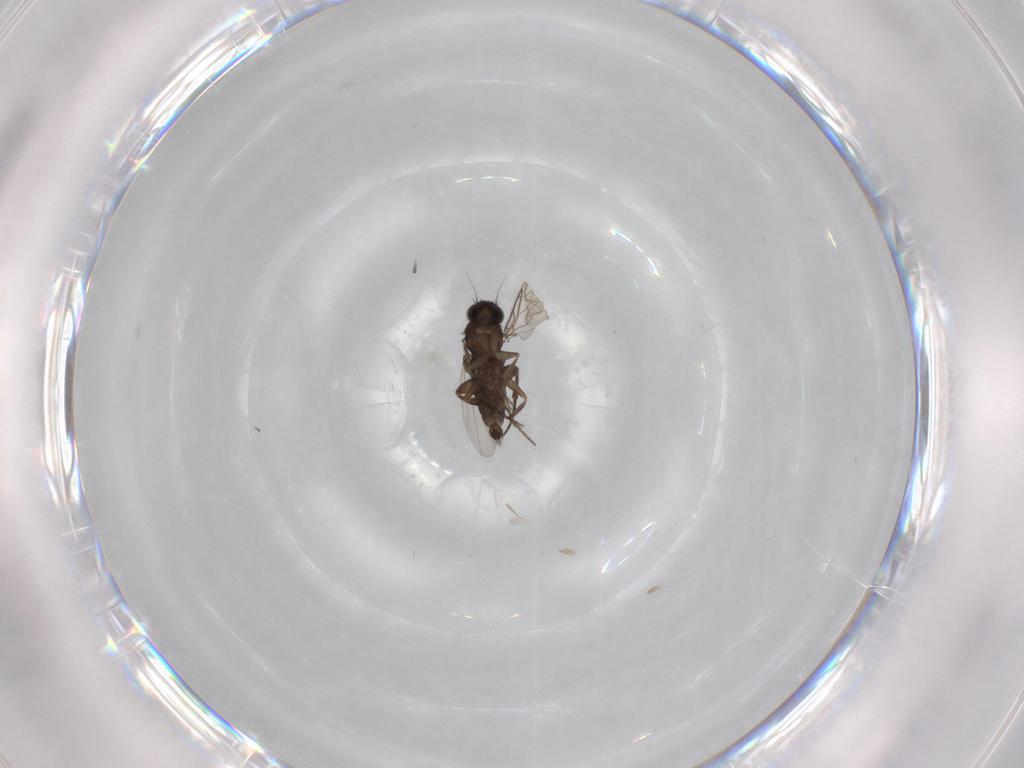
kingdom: Animalia
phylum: Arthropoda
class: Insecta
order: Diptera
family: Phoridae
